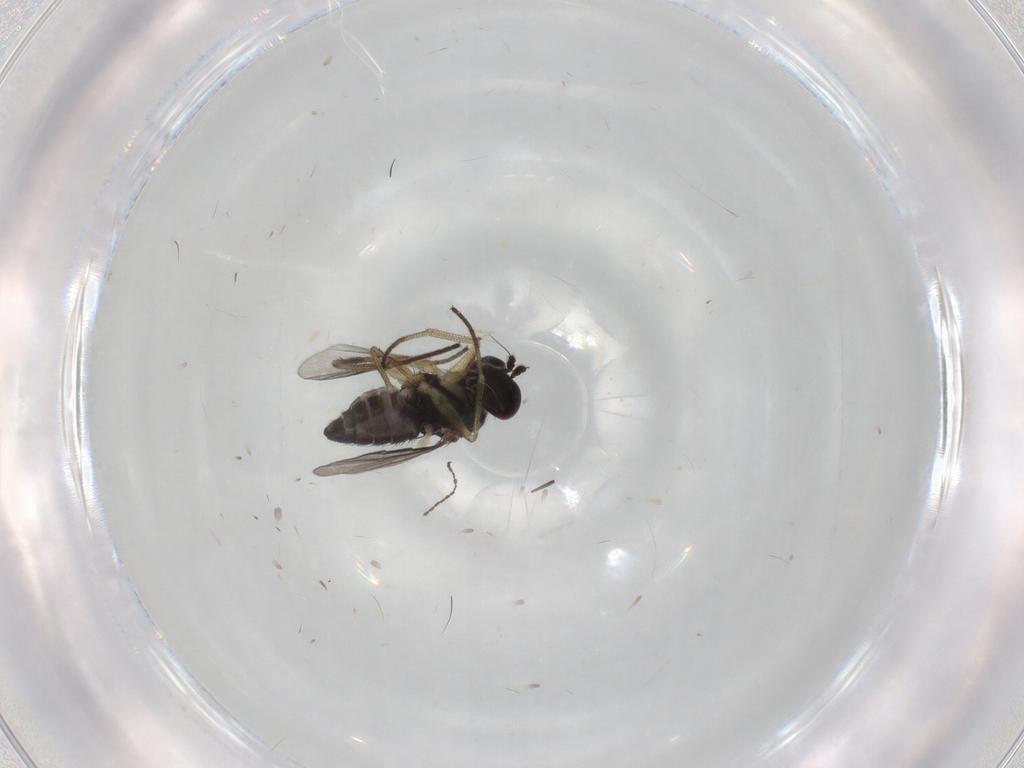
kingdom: Animalia
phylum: Arthropoda
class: Insecta
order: Diptera
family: Dolichopodidae
